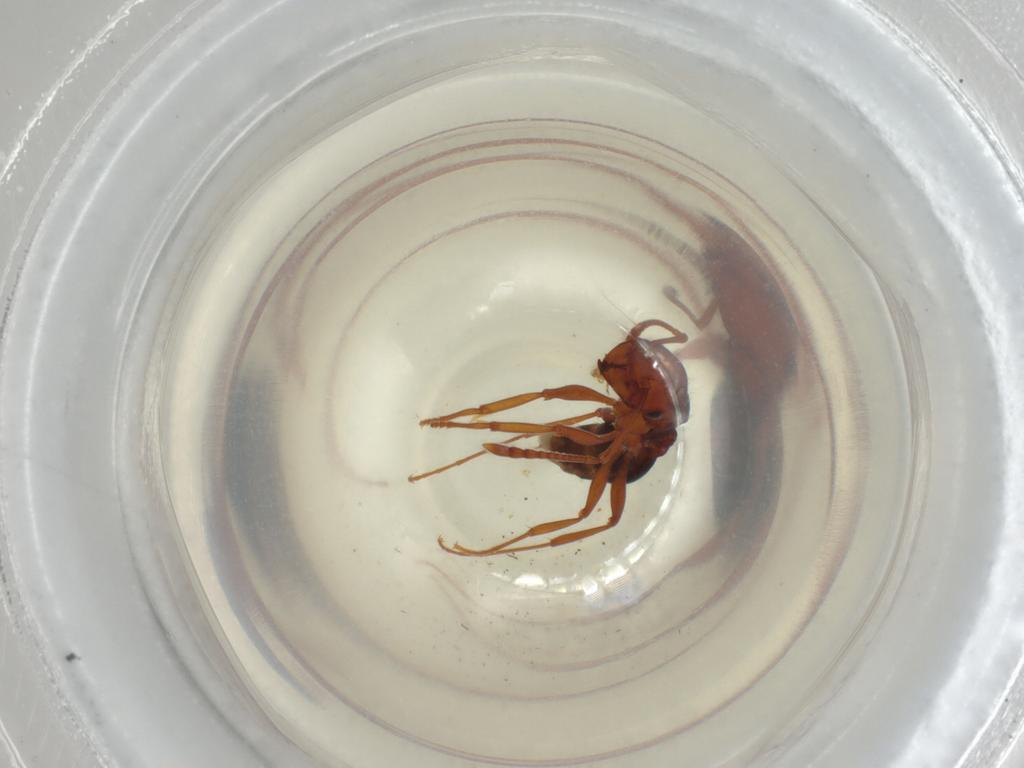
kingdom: Animalia
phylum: Arthropoda
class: Insecta
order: Hymenoptera
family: Formicidae
